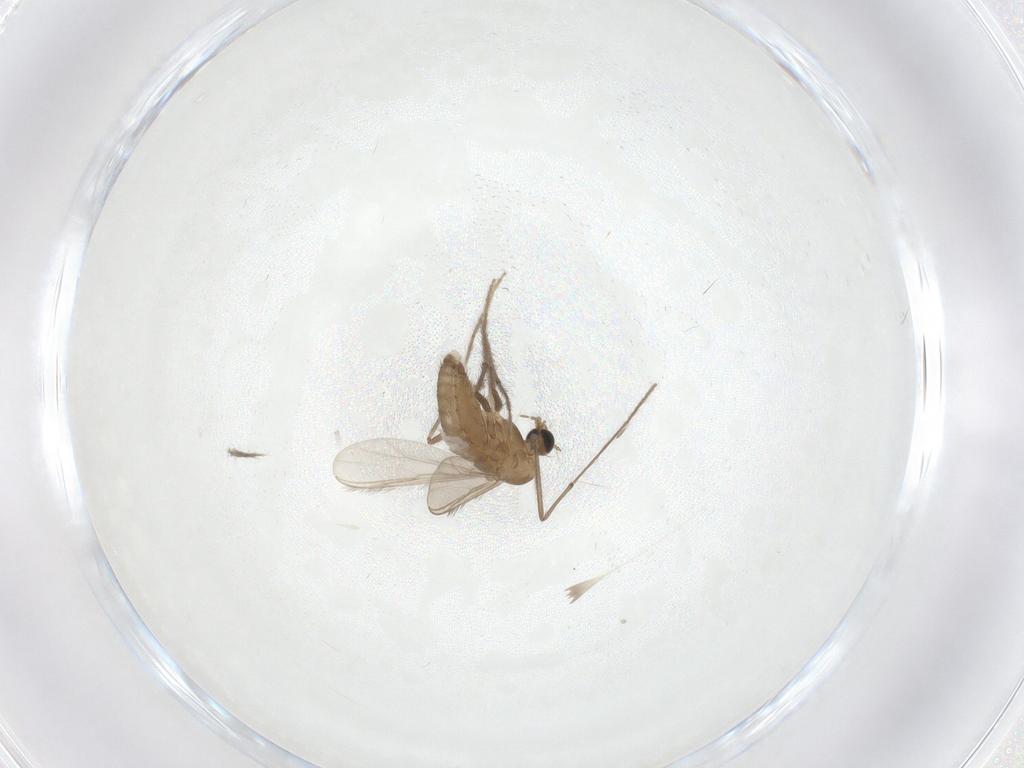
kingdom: Animalia
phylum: Arthropoda
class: Insecta
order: Diptera
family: Chironomidae
